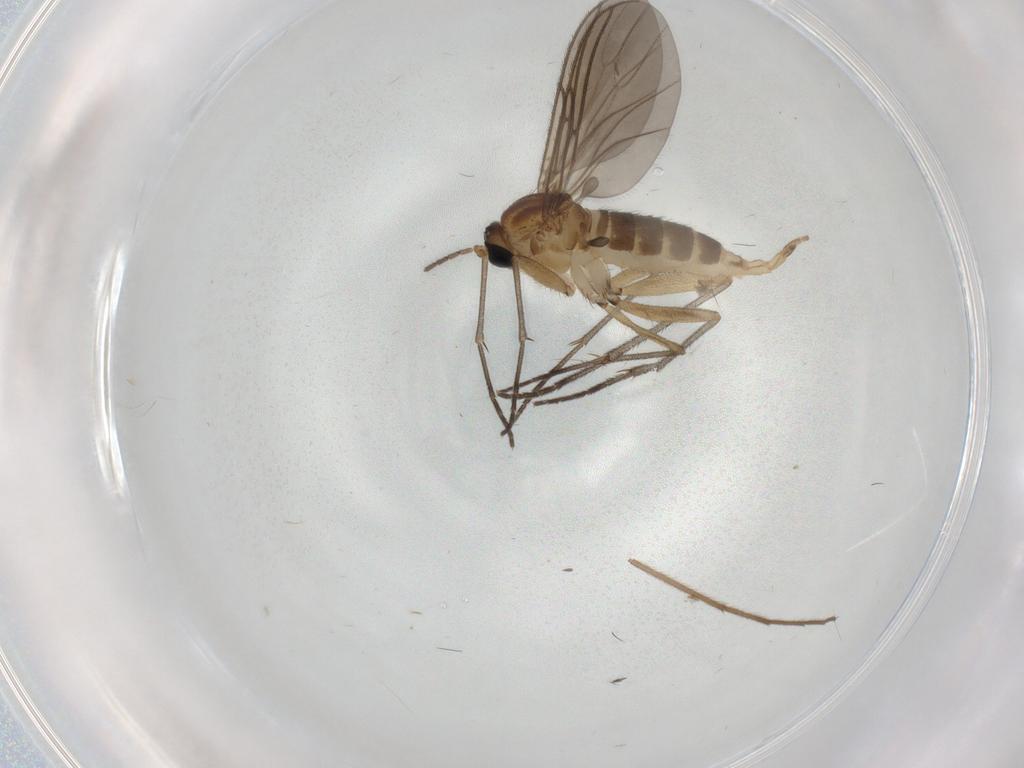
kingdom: Animalia
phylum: Arthropoda
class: Insecta
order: Diptera
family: Sciaridae
